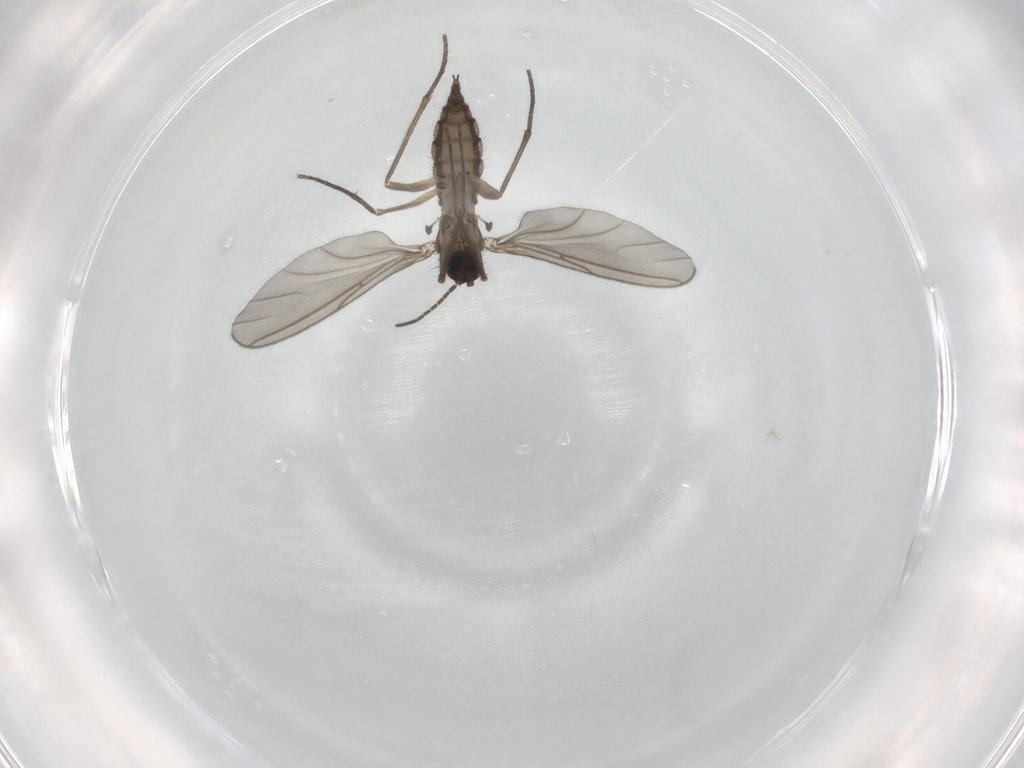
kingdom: Animalia
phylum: Arthropoda
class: Insecta
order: Diptera
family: Sciaridae
